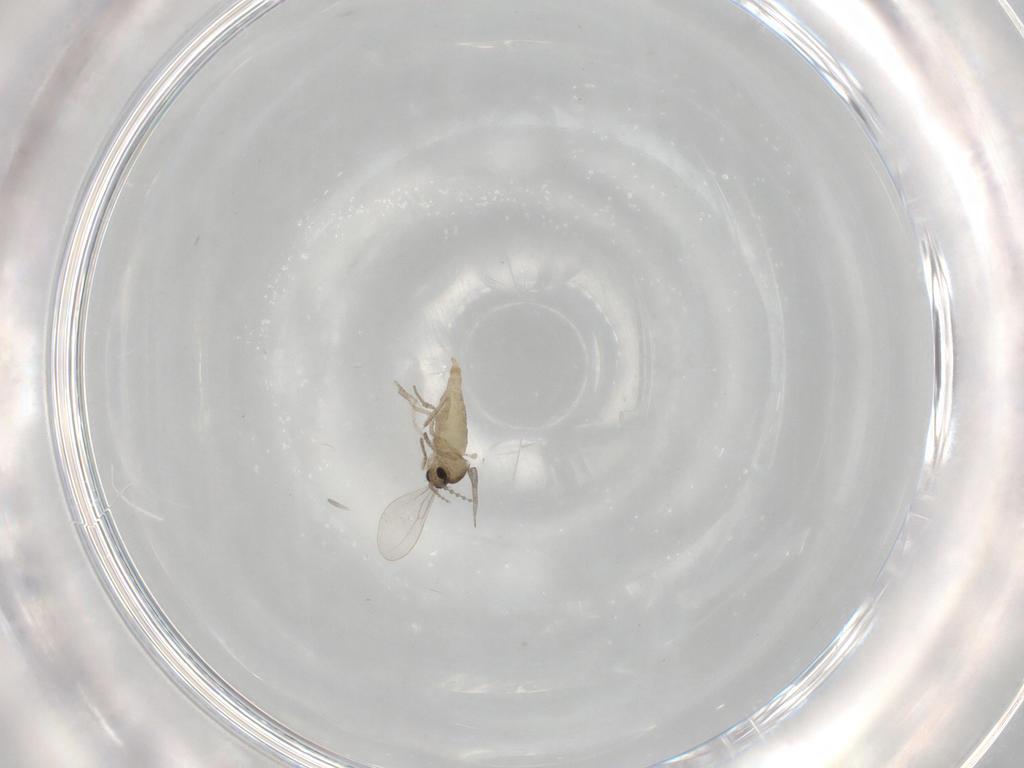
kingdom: Animalia
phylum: Arthropoda
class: Insecta
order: Diptera
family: Cecidomyiidae
